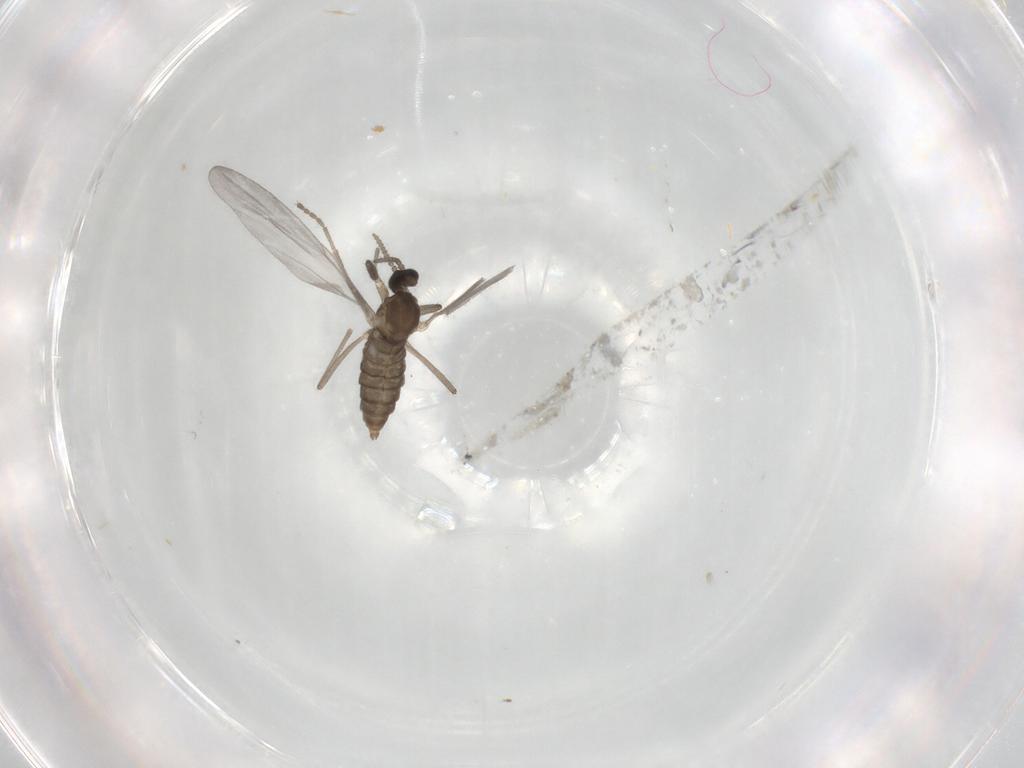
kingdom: Animalia
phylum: Arthropoda
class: Insecta
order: Diptera
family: Cecidomyiidae
